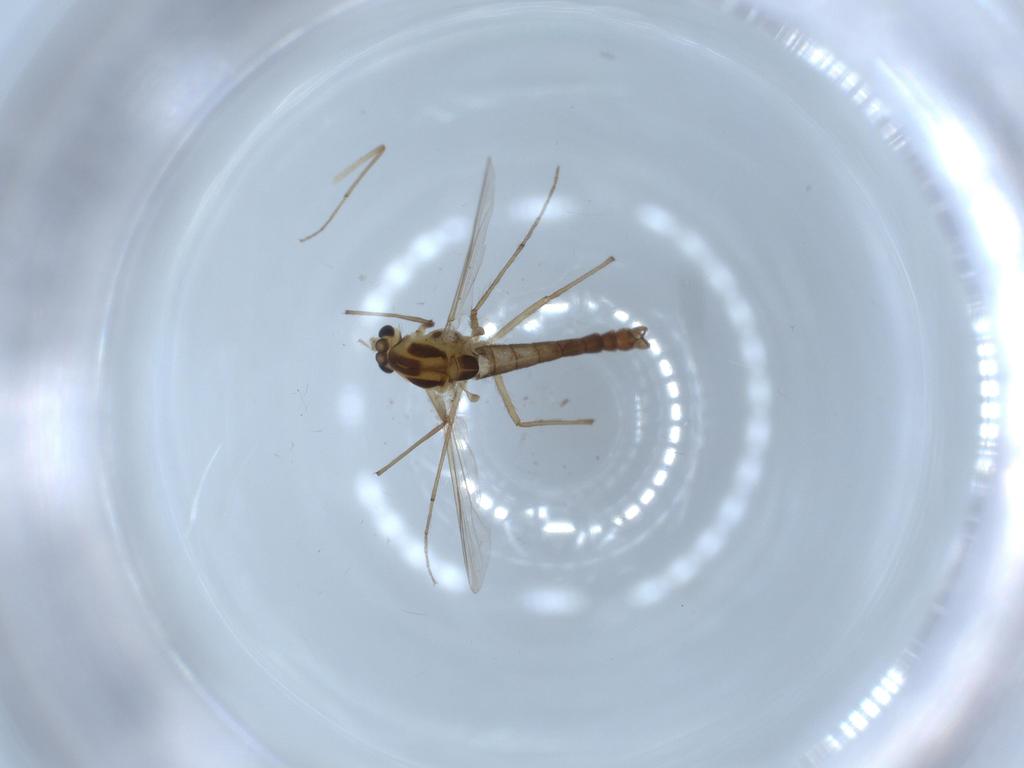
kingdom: Animalia
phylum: Arthropoda
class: Insecta
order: Diptera
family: Chironomidae
